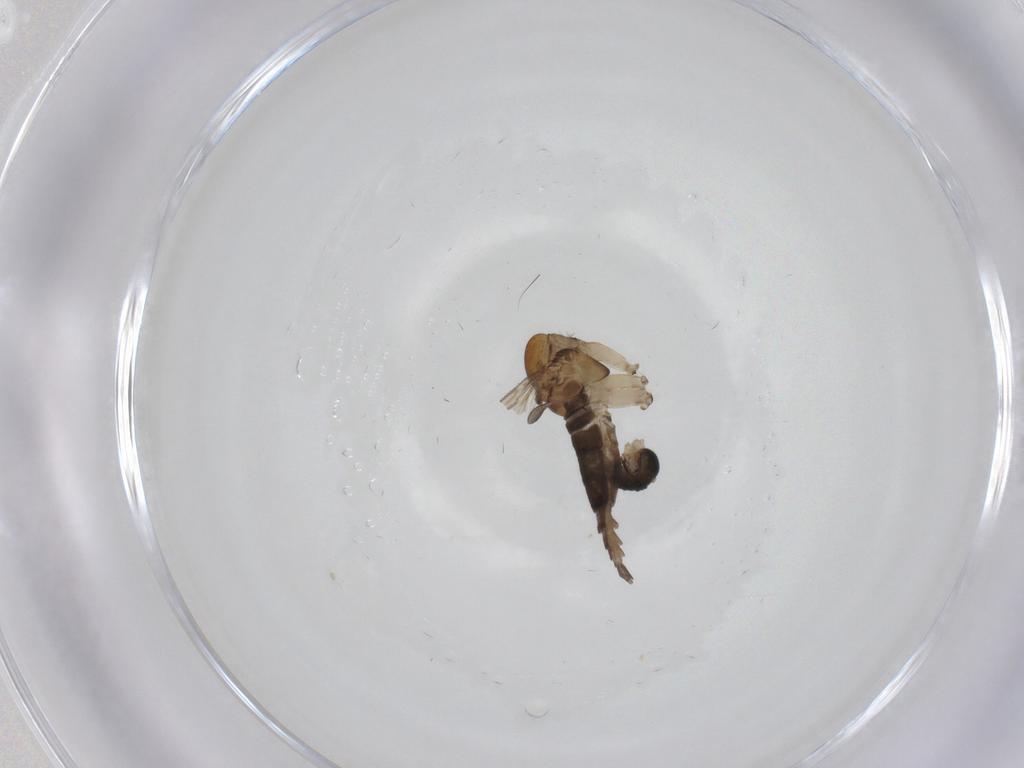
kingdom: Animalia
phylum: Arthropoda
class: Insecta
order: Diptera
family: Sciaridae
